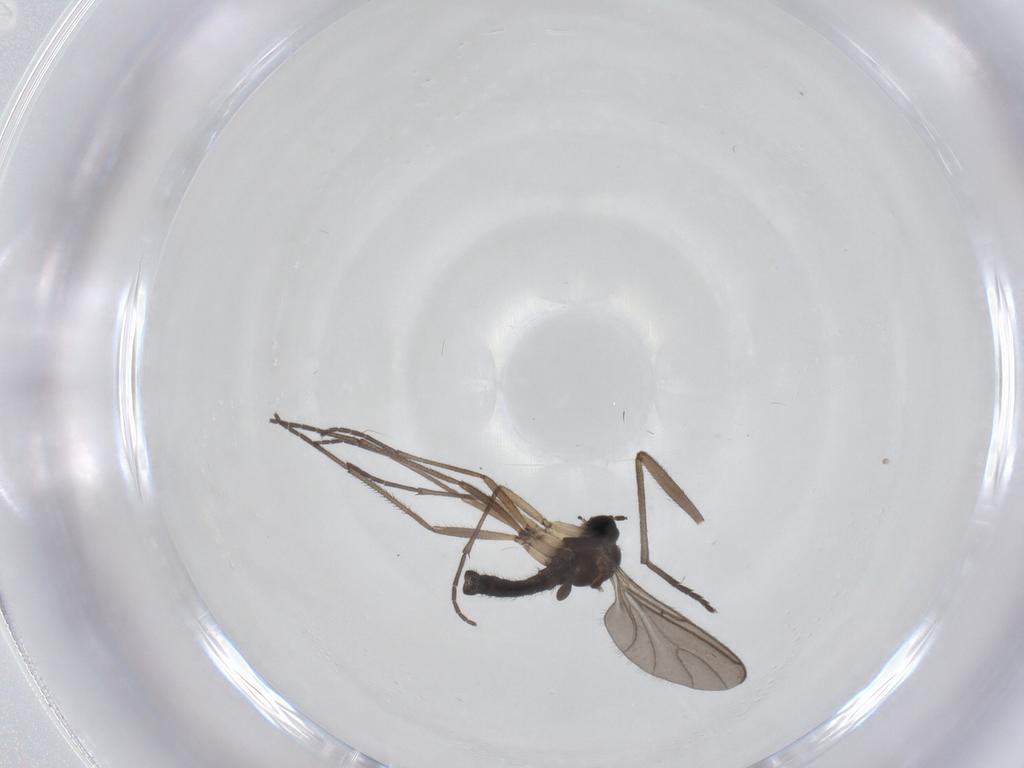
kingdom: Animalia
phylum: Arthropoda
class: Insecta
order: Diptera
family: Sciaridae
